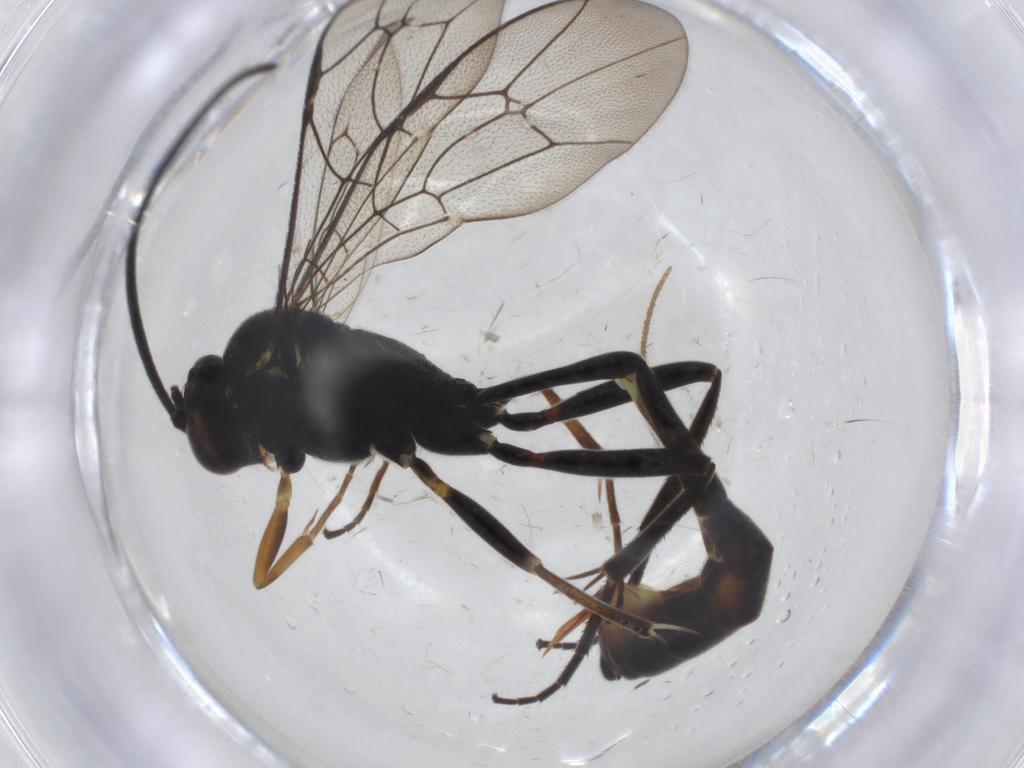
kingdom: Animalia
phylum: Arthropoda
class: Insecta
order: Hymenoptera
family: Ichneumonidae
